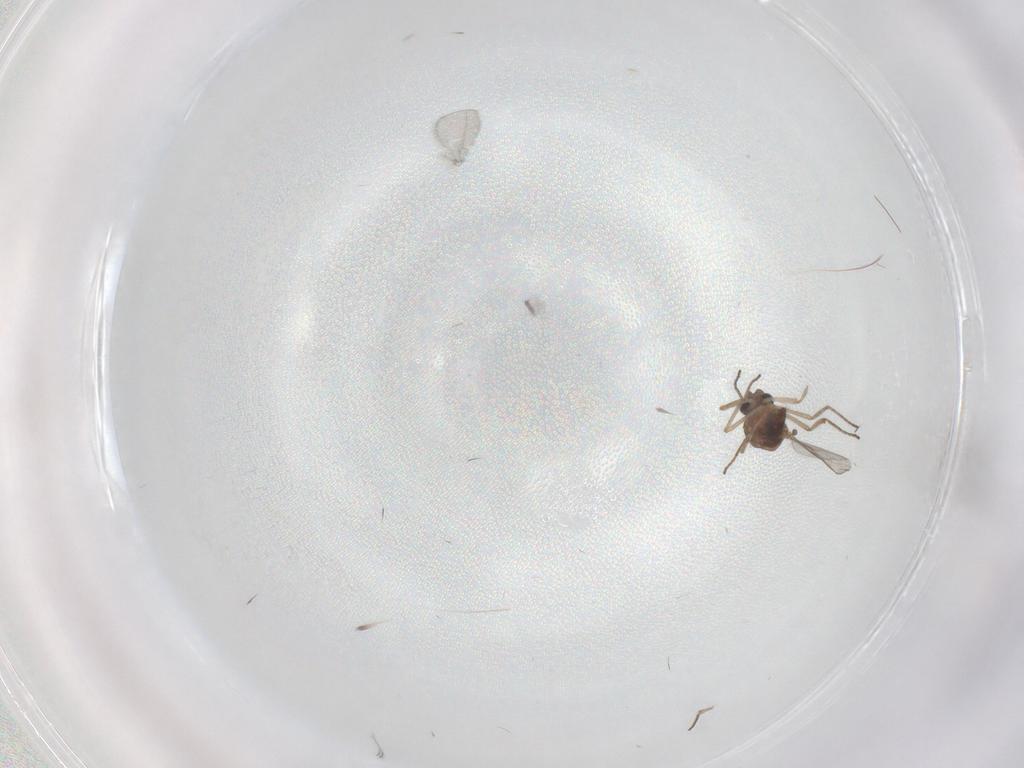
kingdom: Animalia
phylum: Arthropoda
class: Insecta
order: Diptera
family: Ceratopogonidae
